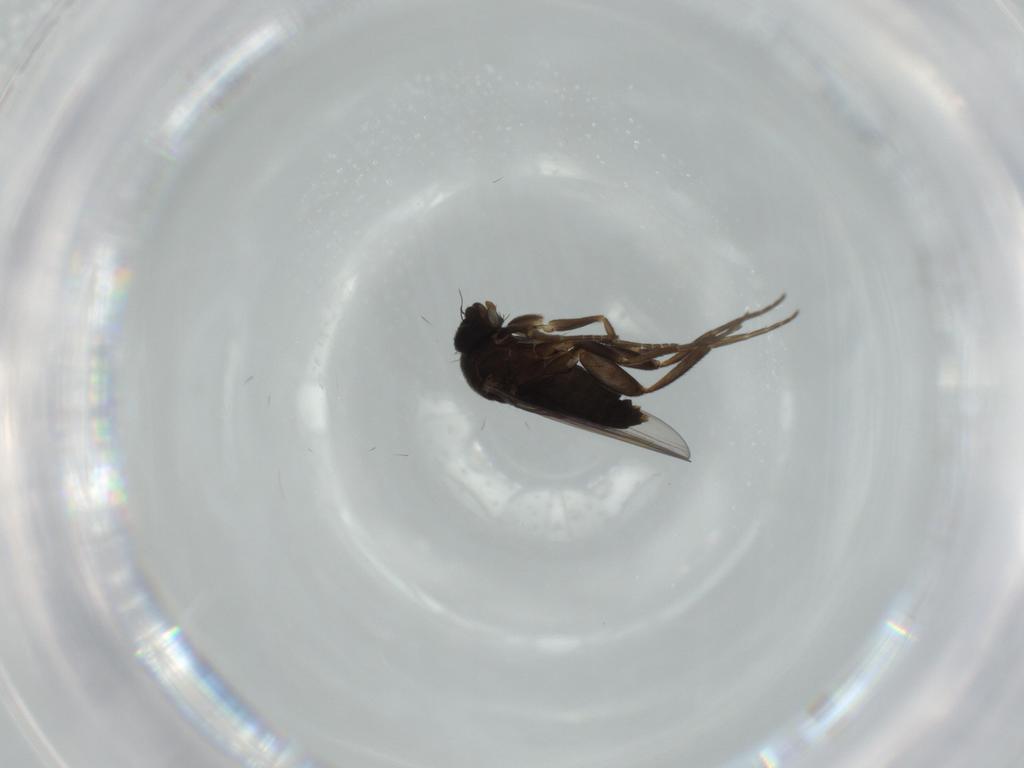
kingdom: Animalia
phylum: Arthropoda
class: Insecta
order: Diptera
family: Phoridae
